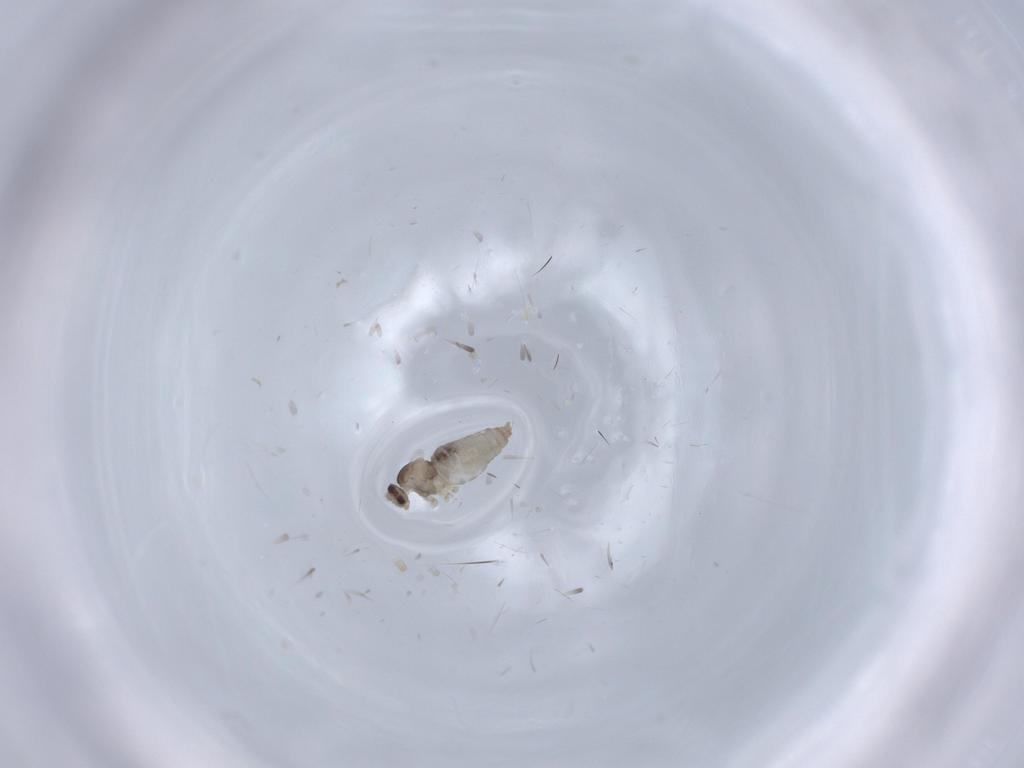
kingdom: Animalia
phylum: Arthropoda
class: Insecta
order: Diptera
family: Cecidomyiidae
